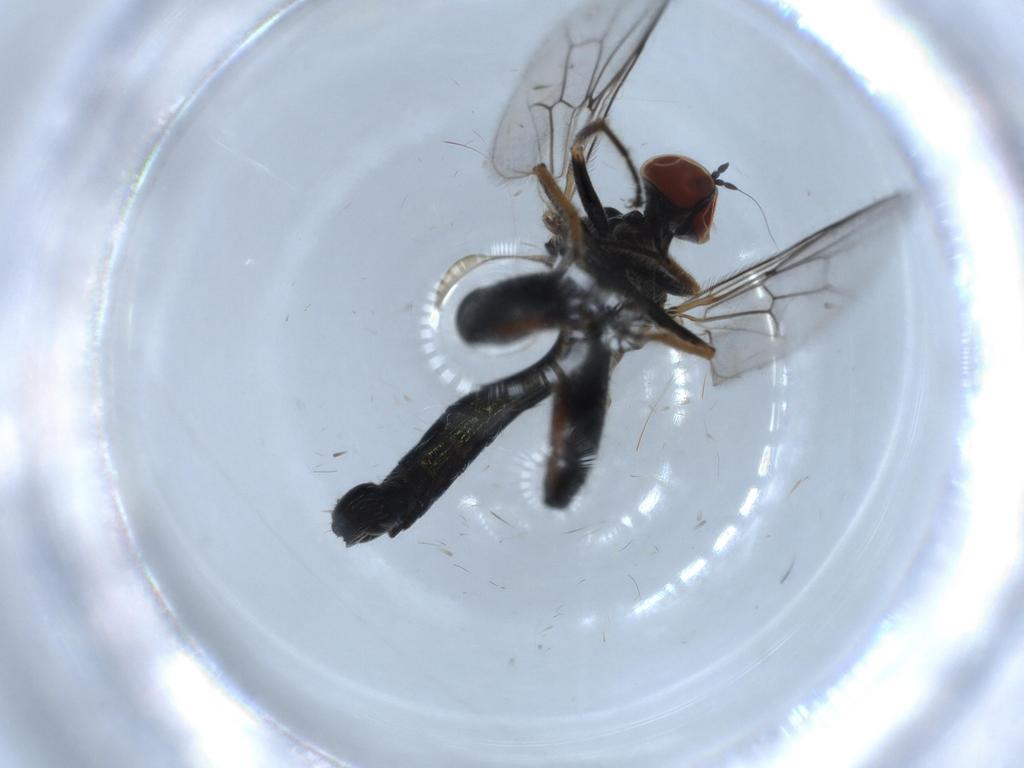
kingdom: Animalia
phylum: Arthropoda
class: Insecta
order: Diptera
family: Hybotidae
